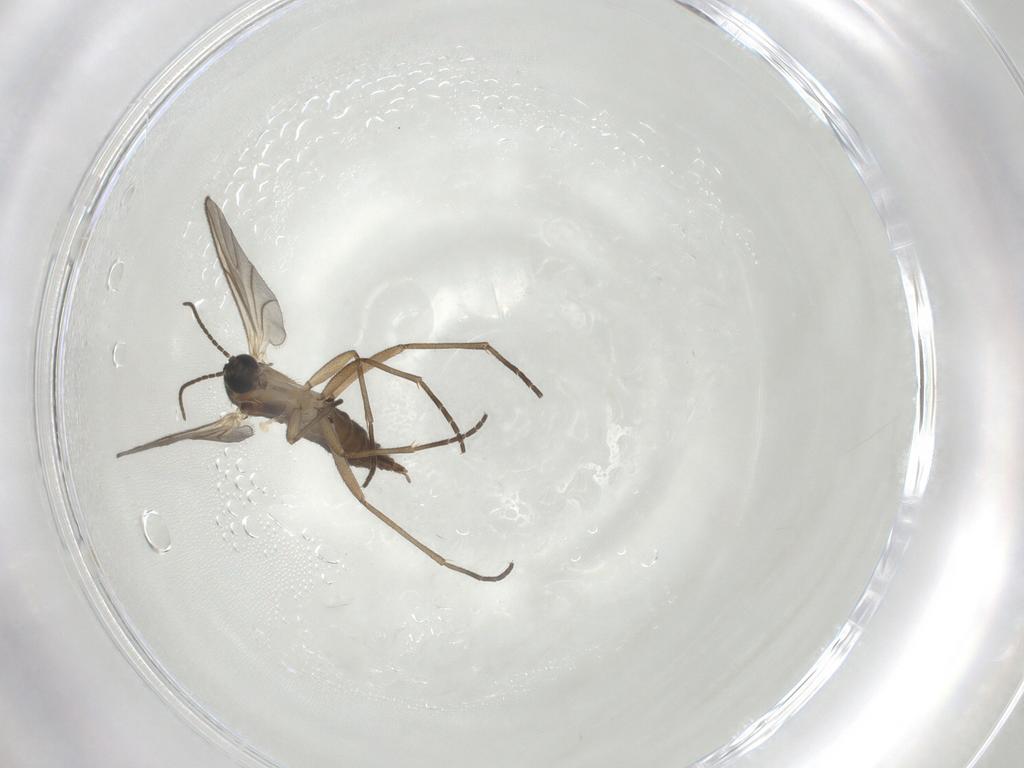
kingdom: Animalia
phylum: Arthropoda
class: Insecta
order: Diptera
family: Chironomidae
